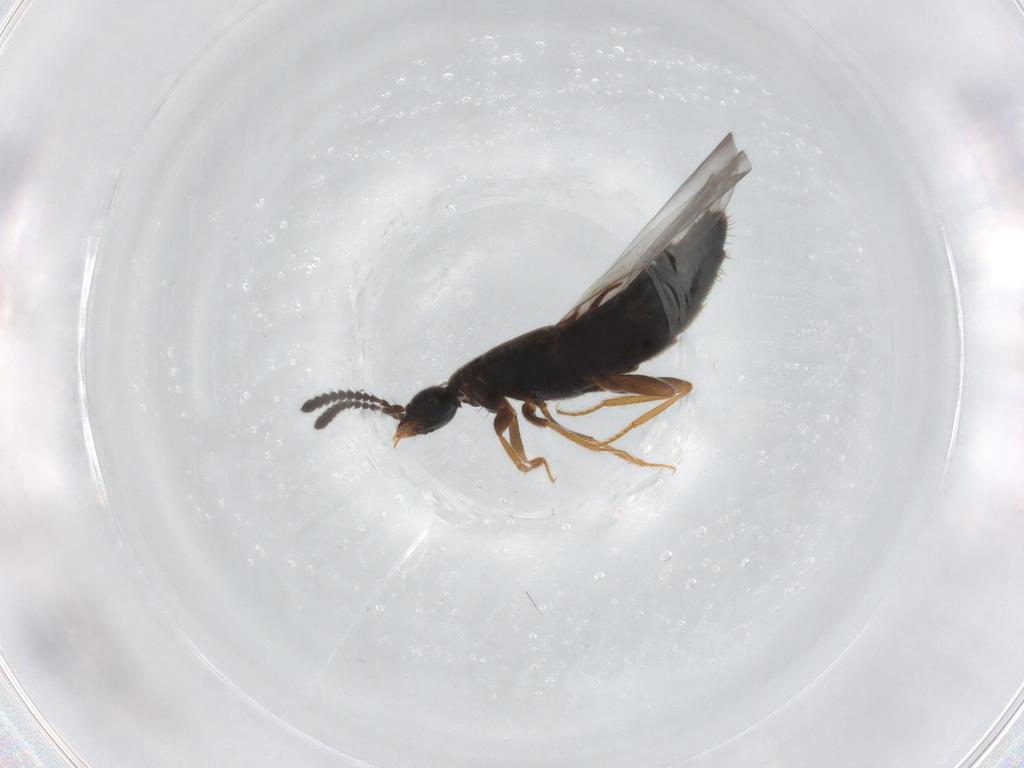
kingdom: Animalia
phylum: Arthropoda
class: Insecta
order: Coleoptera
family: Staphylinidae
